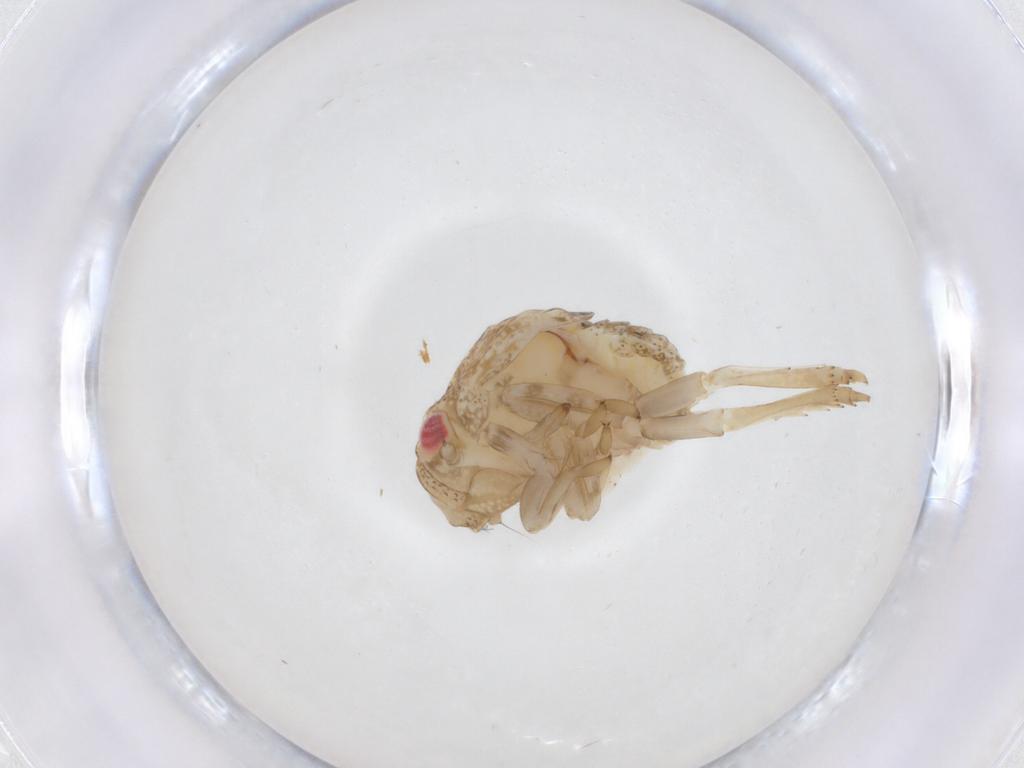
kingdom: Animalia
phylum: Arthropoda
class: Insecta
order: Hemiptera
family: Acanaloniidae
